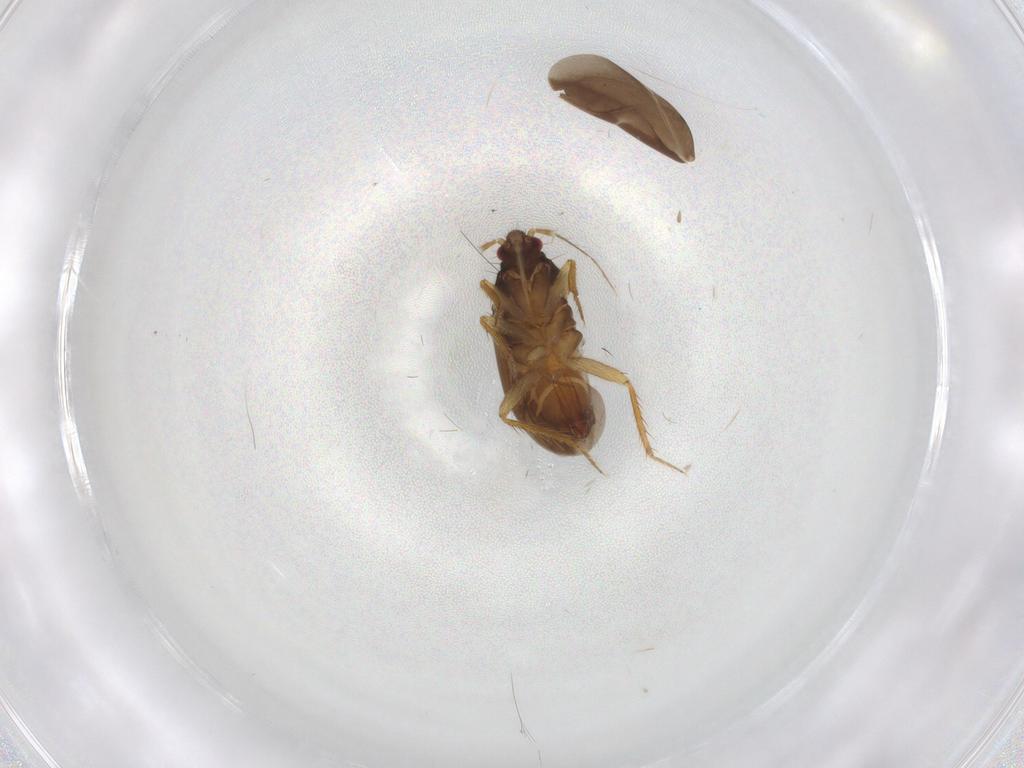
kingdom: Animalia
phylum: Arthropoda
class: Insecta
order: Hemiptera
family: Ceratocombidae
